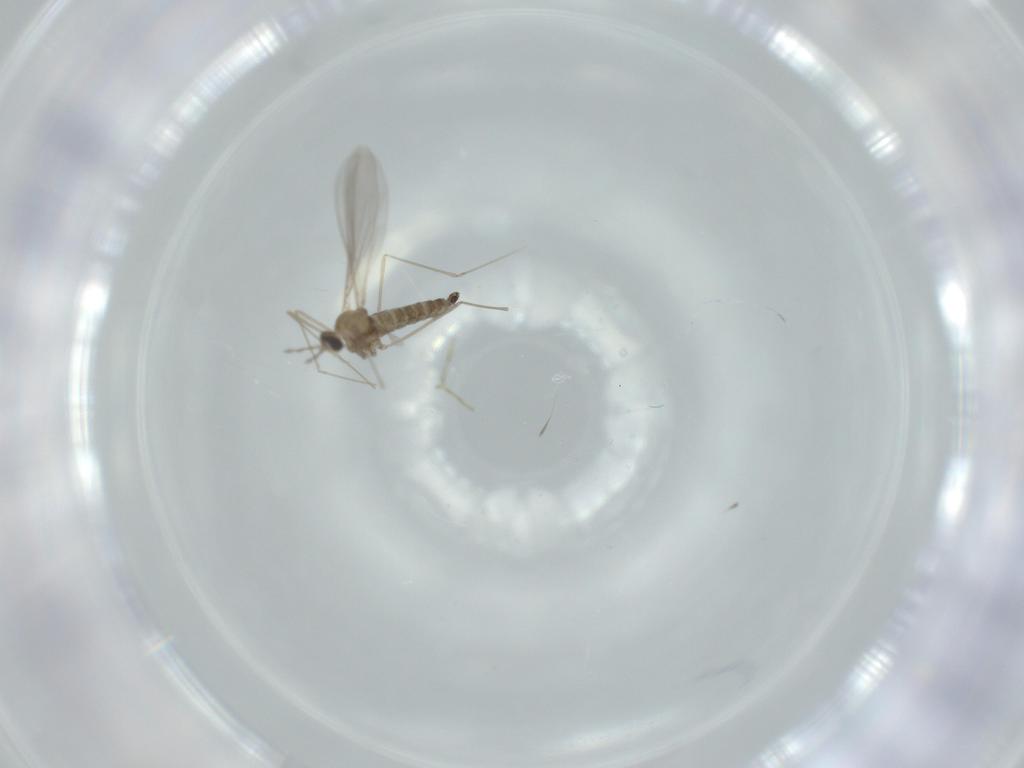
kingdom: Animalia
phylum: Arthropoda
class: Insecta
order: Diptera
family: Cecidomyiidae
